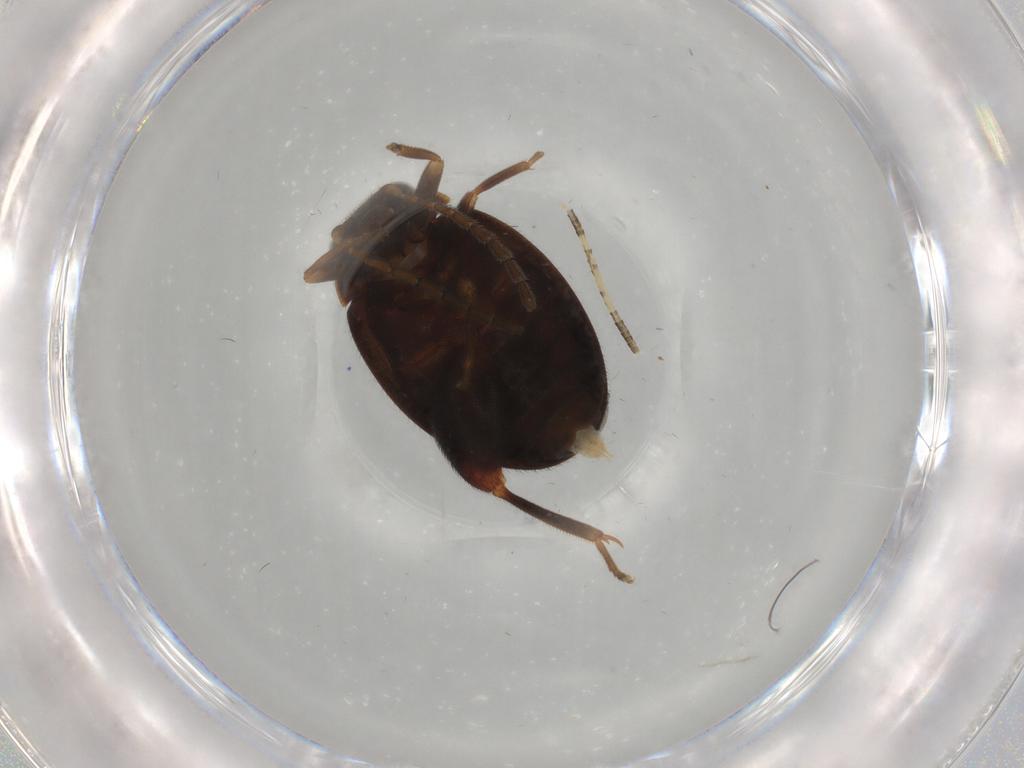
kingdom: Animalia
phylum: Arthropoda
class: Insecta
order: Coleoptera
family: Scirtidae
